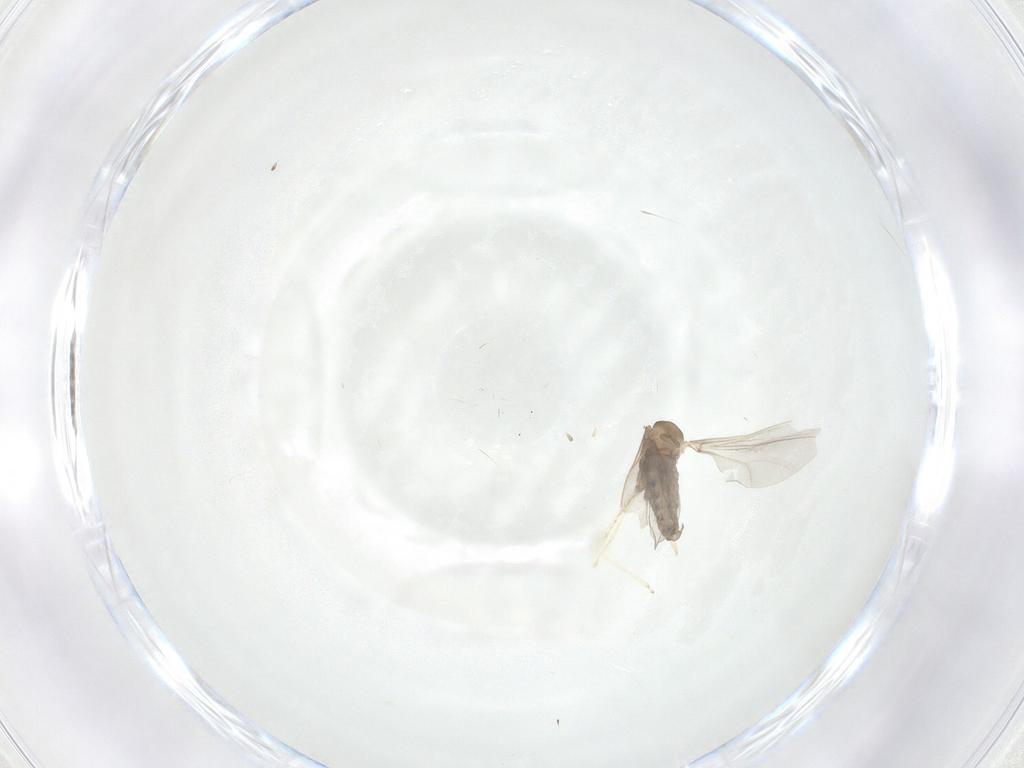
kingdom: Animalia
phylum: Arthropoda
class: Insecta
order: Diptera
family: Cecidomyiidae
